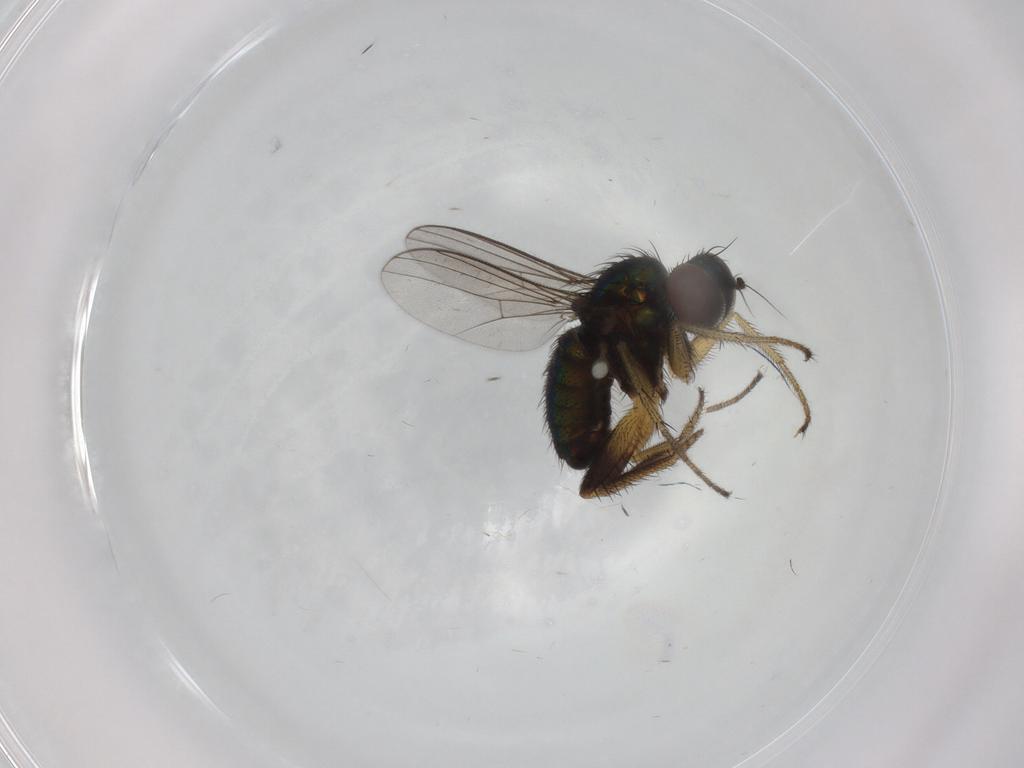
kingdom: Animalia
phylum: Arthropoda
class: Insecta
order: Diptera
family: Dolichopodidae
